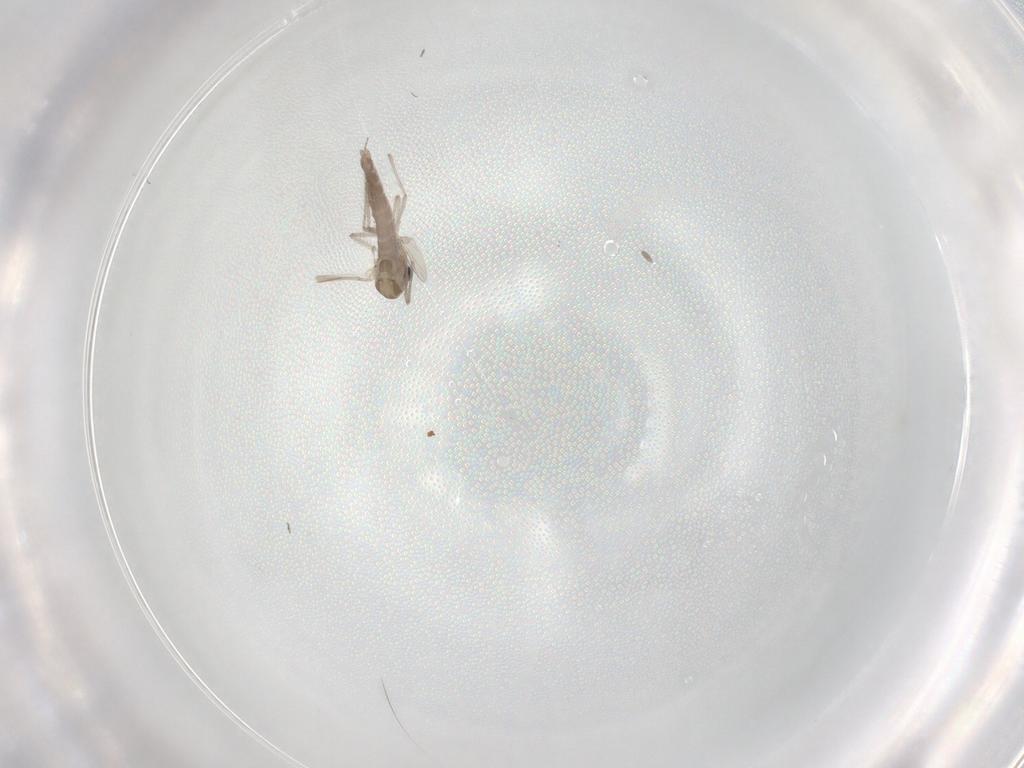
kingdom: Animalia
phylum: Arthropoda
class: Insecta
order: Diptera
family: Chironomidae
